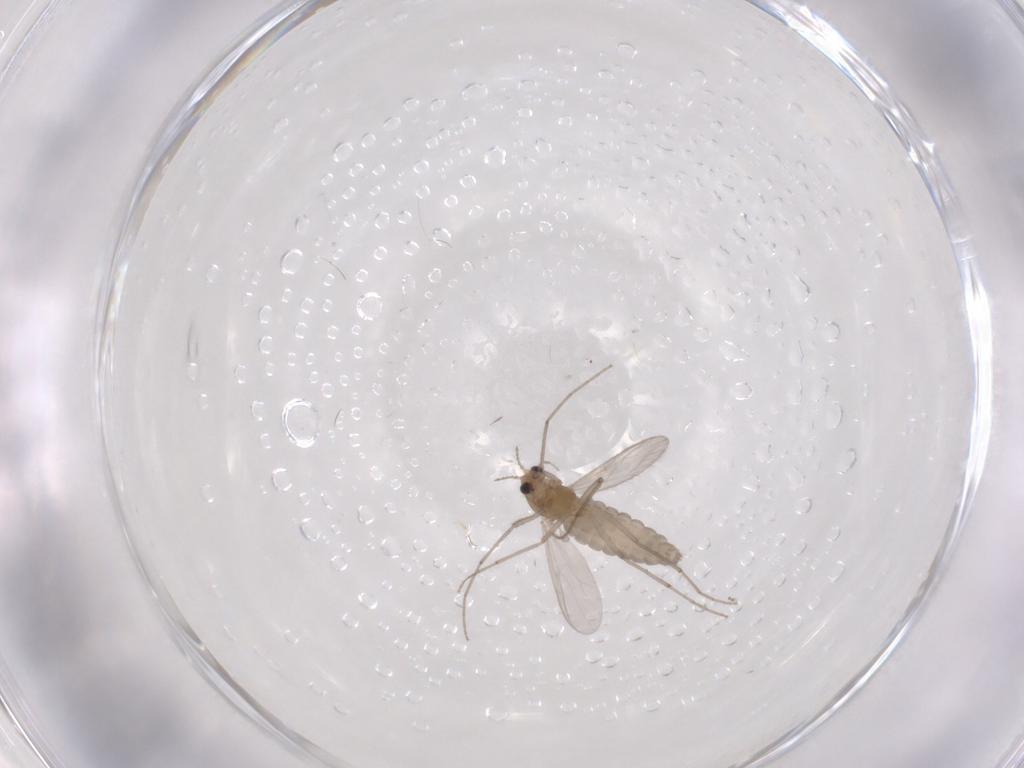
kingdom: Animalia
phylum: Arthropoda
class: Insecta
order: Diptera
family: Chironomidae
